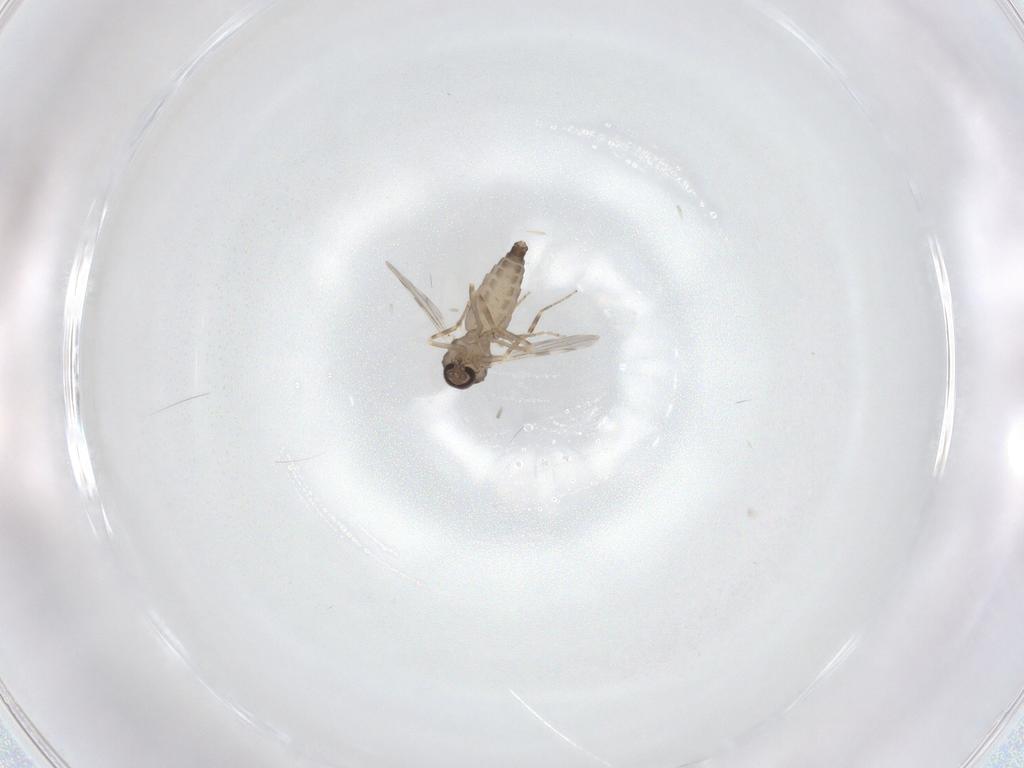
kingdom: Animalia
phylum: Arthropoda
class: Insecta
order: Diptera
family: Ceratopogonidae
